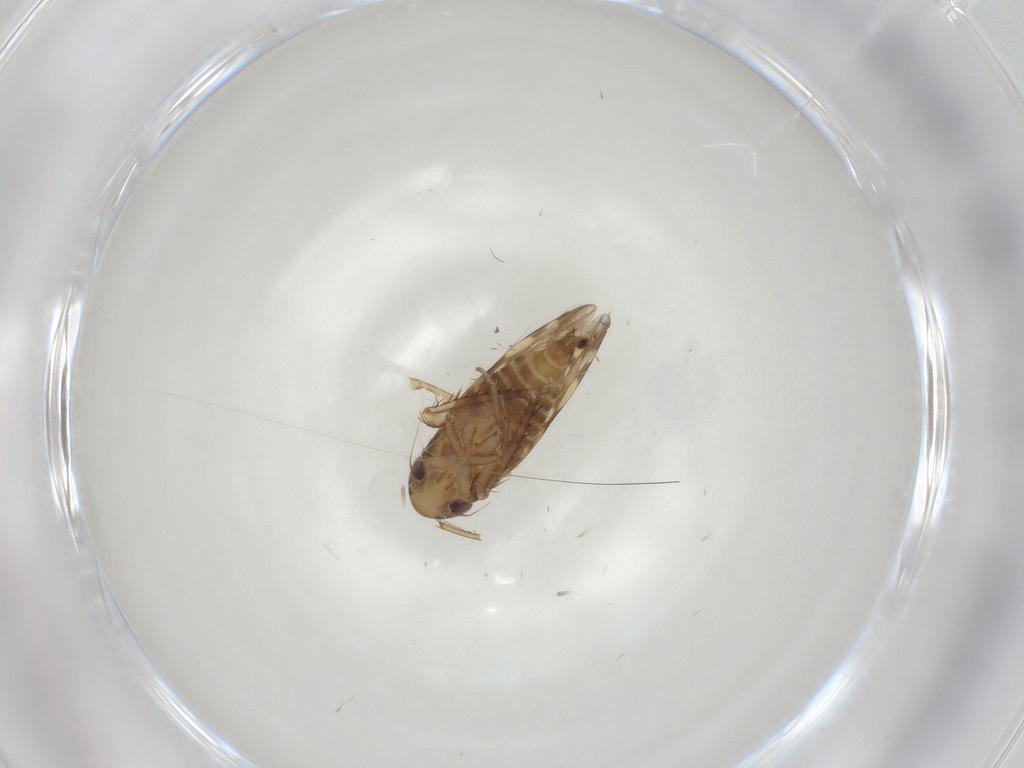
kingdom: Animalia
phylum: Arthropoda
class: Insecta
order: Hemiptera
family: Cicadellidae
